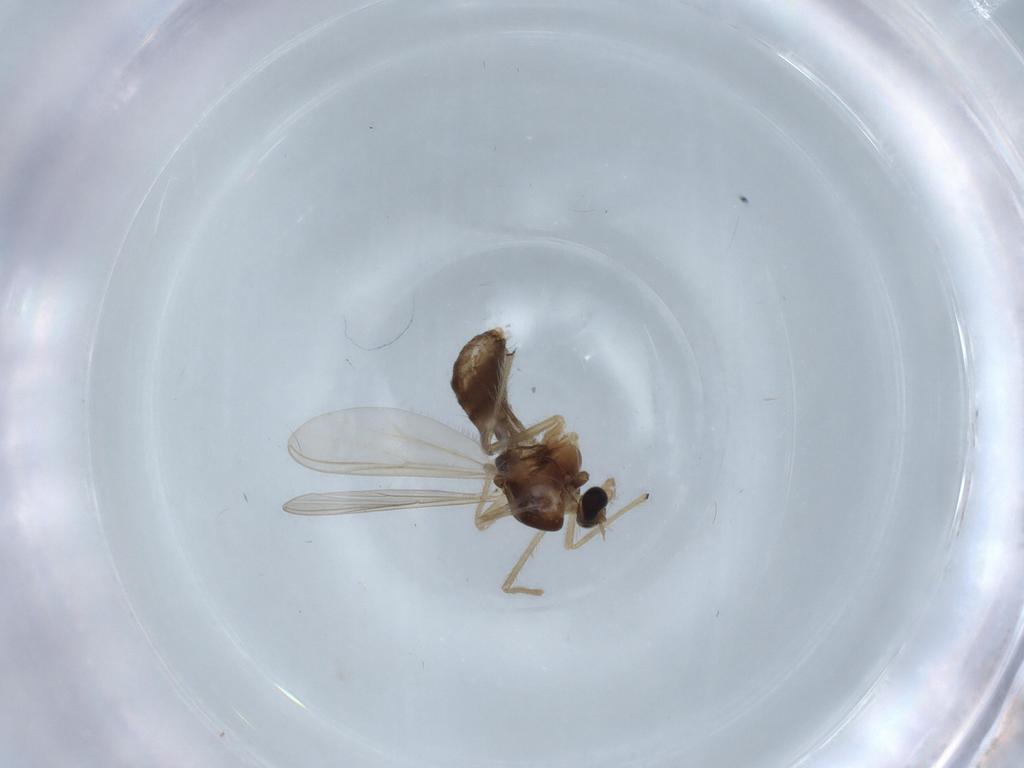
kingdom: Animalia
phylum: Arthropoda
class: Insecta
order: Diptera
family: Chironomidae
